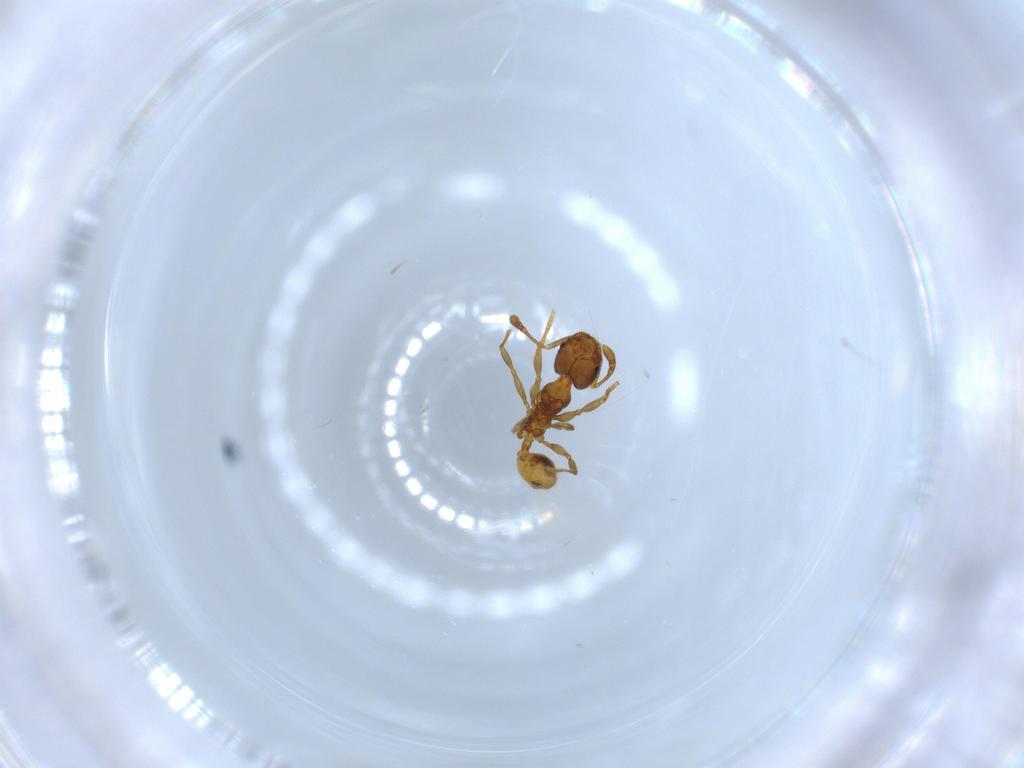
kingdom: Animalia
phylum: Arthropoda
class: Insecta
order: Hymenoptera
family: Formicidae
